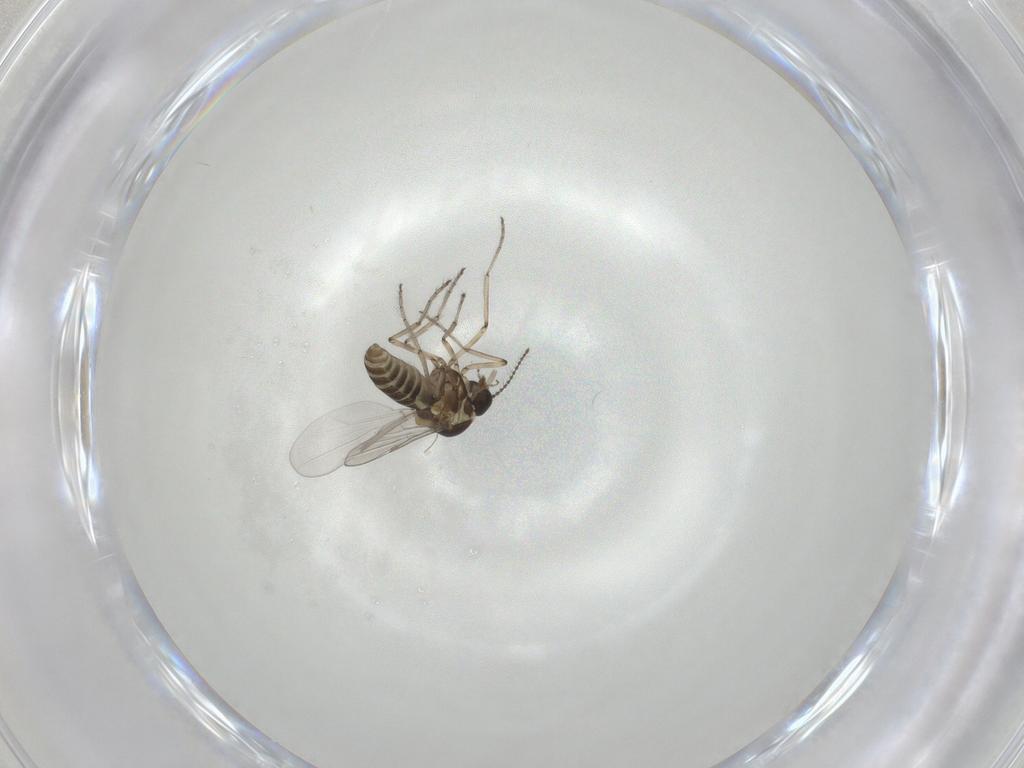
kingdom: Animalia
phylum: Arthropoda
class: Insecta
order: Diptera
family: Ceratopogonidae
